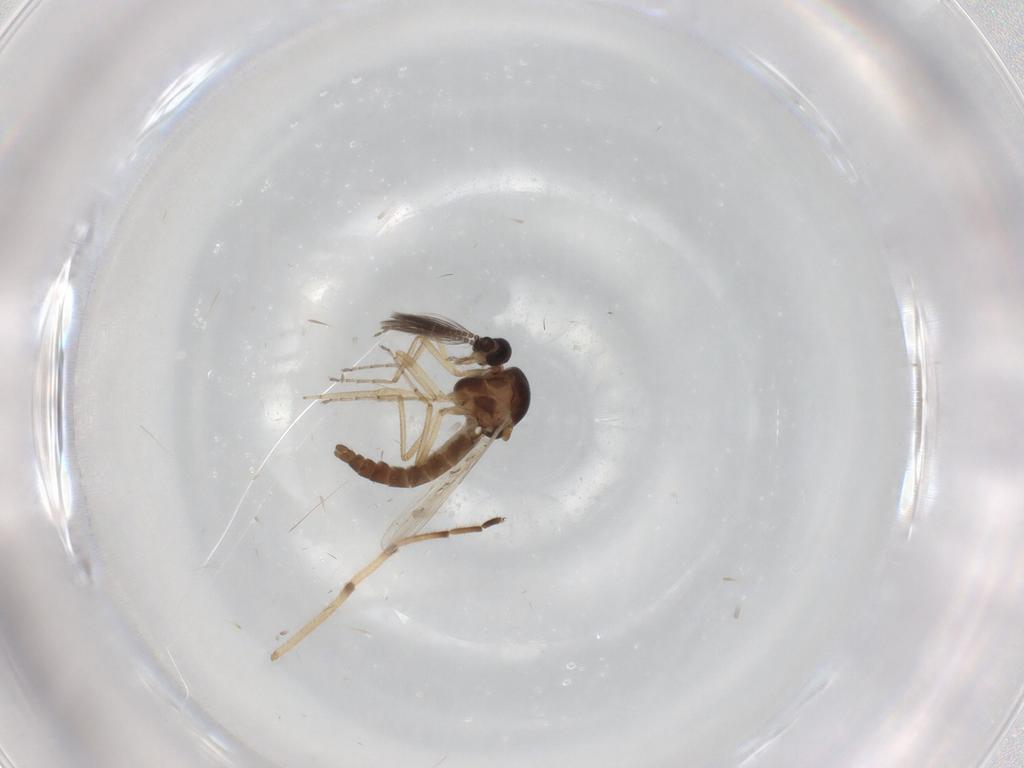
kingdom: Animalia
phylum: Arthropoda
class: Insecta
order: Diptera
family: Ceratopogonidae
